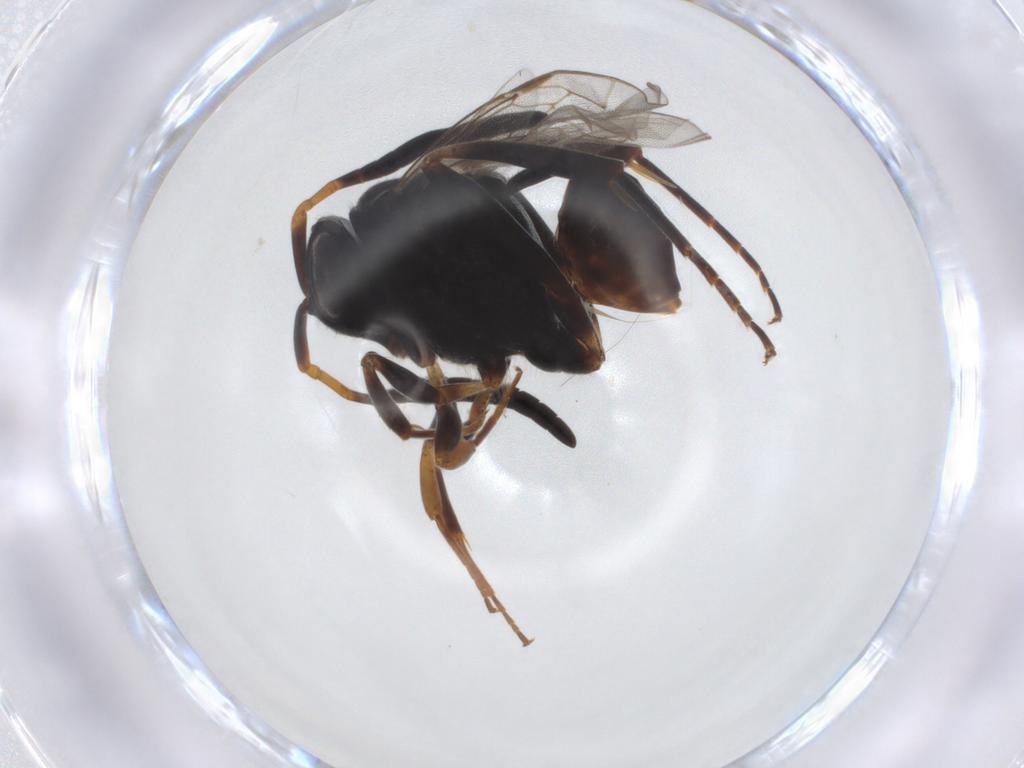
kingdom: Animalia
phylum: Arthropoda
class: Insecta
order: Hymenoptera
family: Evaniidae
